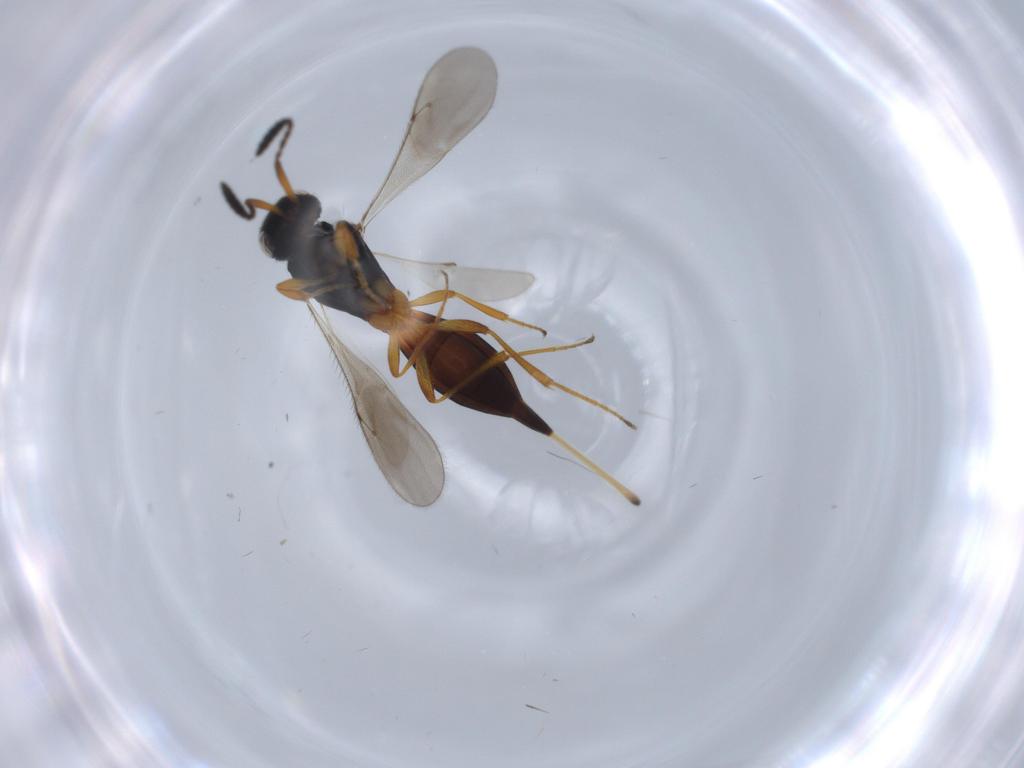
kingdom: Animalia
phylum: Arthropoda
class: Insecta
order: Hymenoptera
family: Scelionidae
